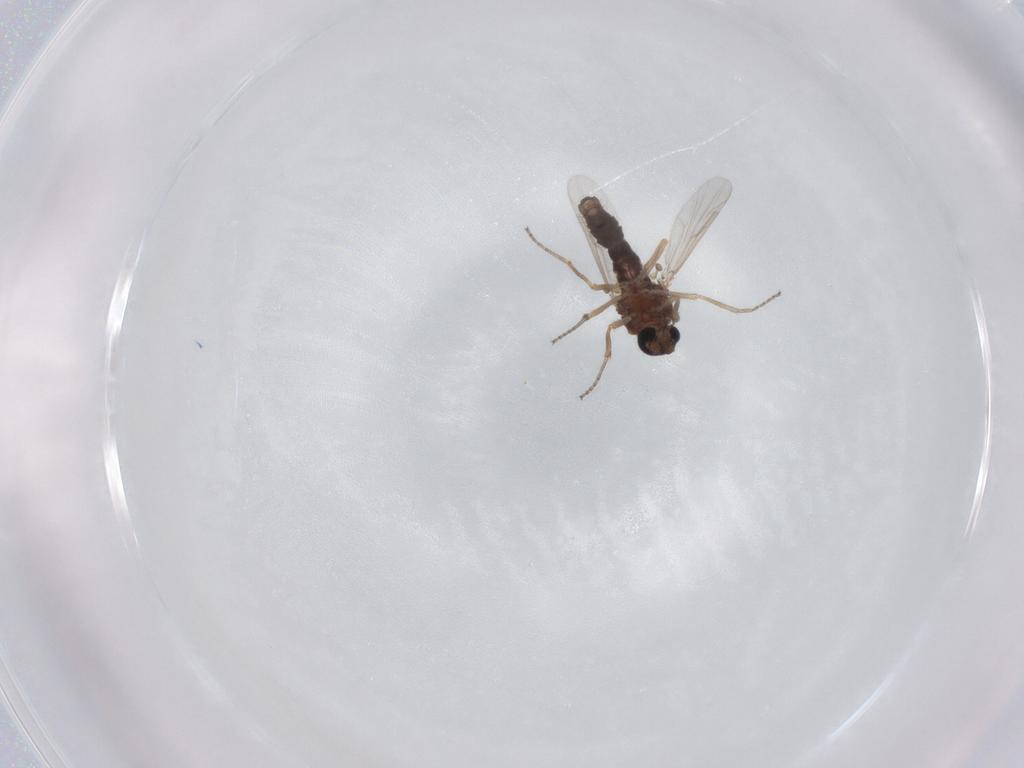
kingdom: Animalia
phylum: Arthropoda
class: Insecta
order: Diptera
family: Ceratopogonidae
